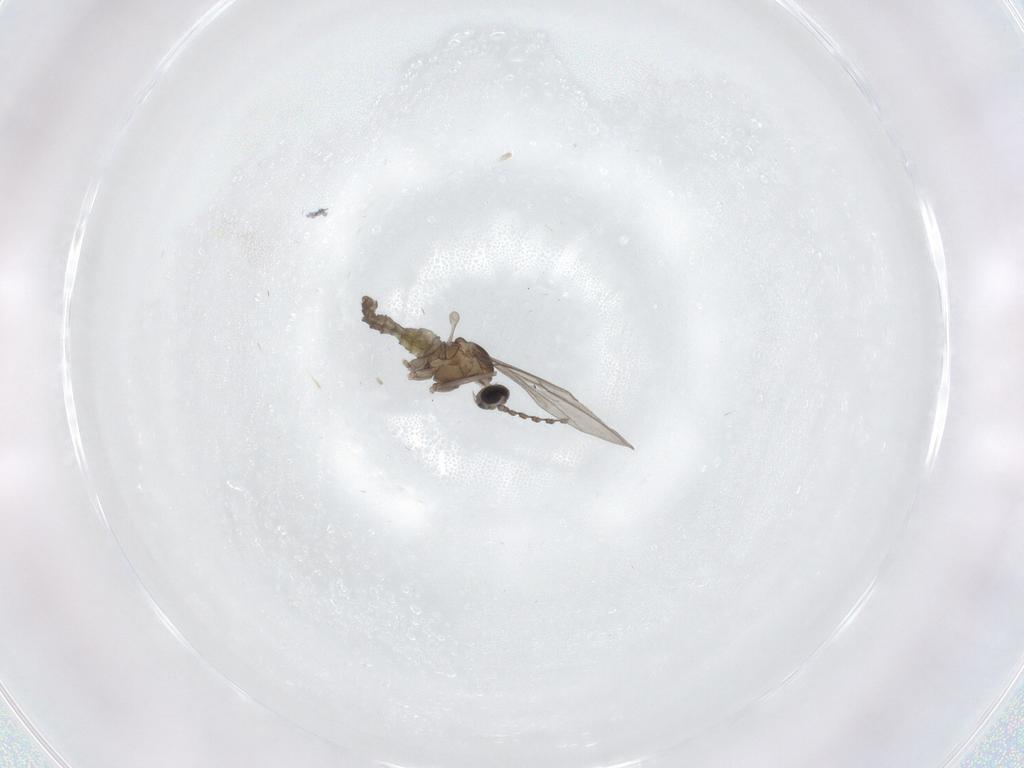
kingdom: Animalia
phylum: Arthropoda
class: Insecta
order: Diptera
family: Cecidomyiidae
